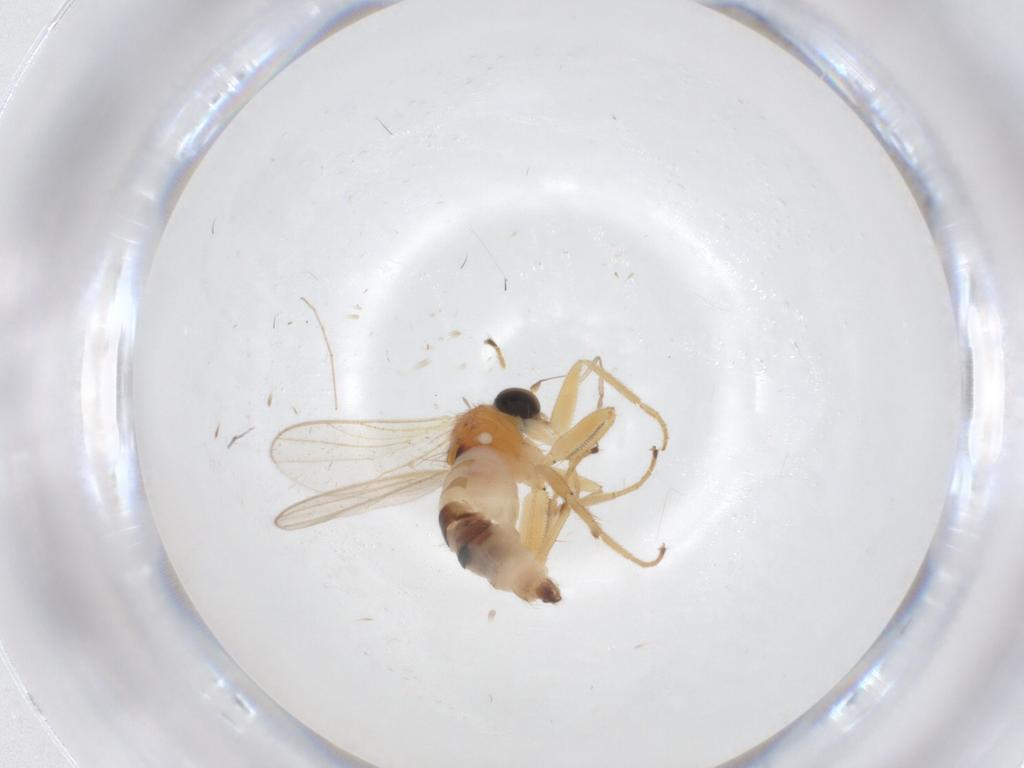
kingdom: Animalia
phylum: Arthropoda
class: Insecta
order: Diptera
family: Hybotidae
